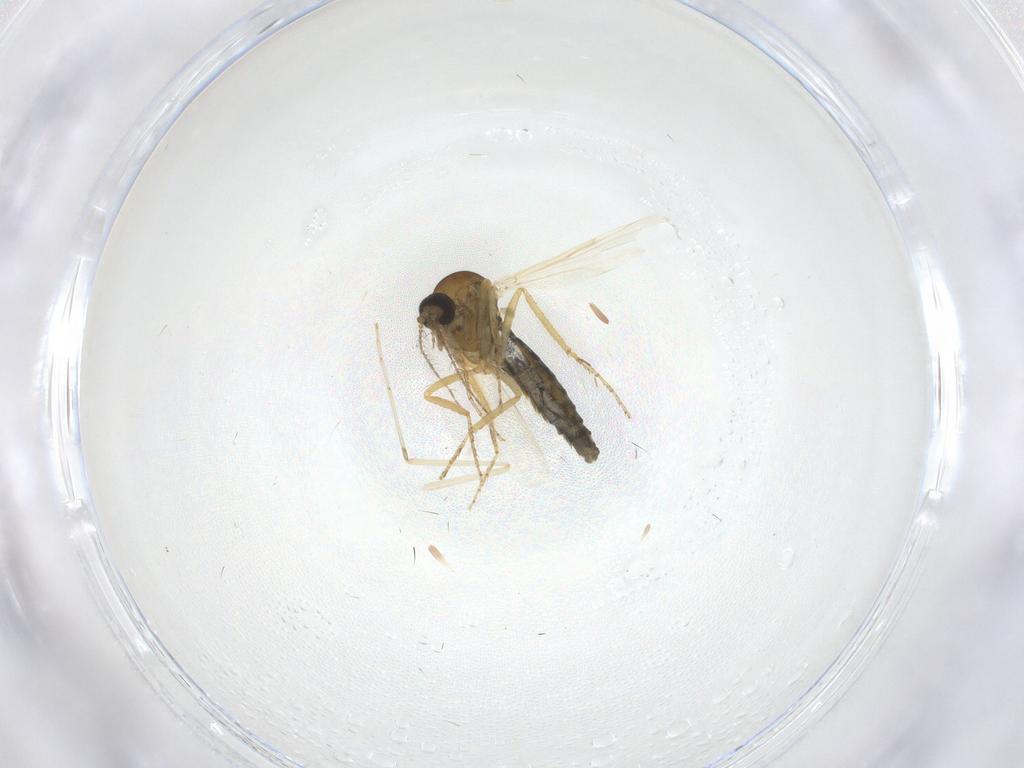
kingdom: Animalia
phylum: Arthropoda
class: Insecta
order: Diptera
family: Ceratopogonidae
